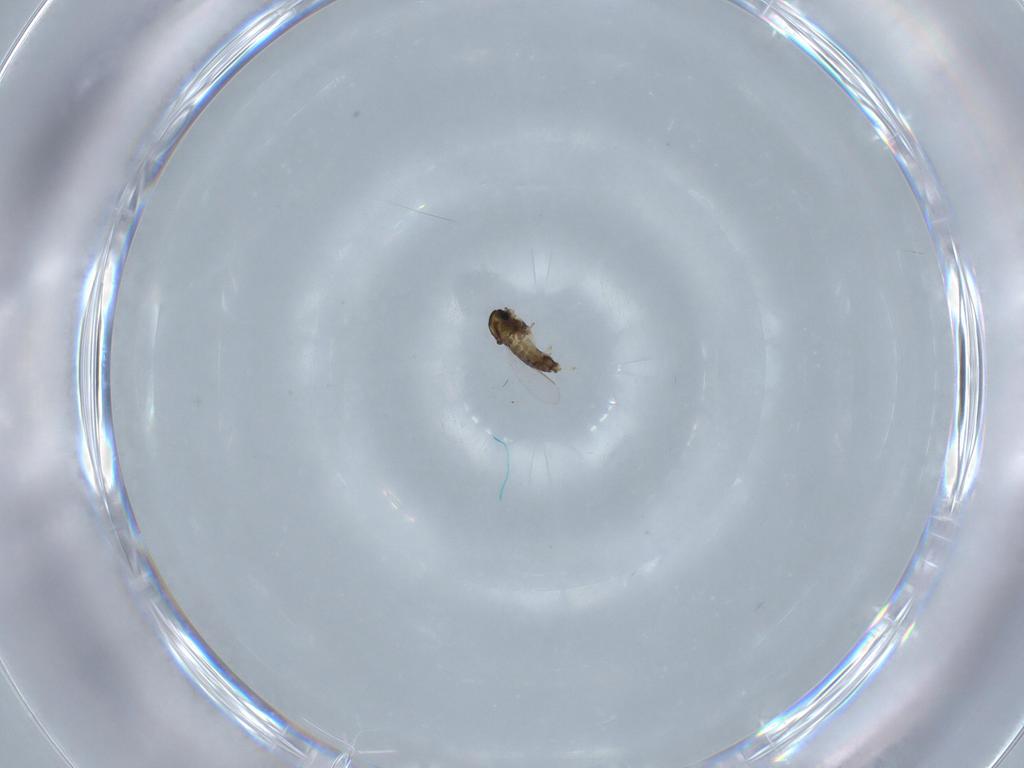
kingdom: Animalia
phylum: Arthropoda
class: Insecta
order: Diptera
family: Chironomidae
